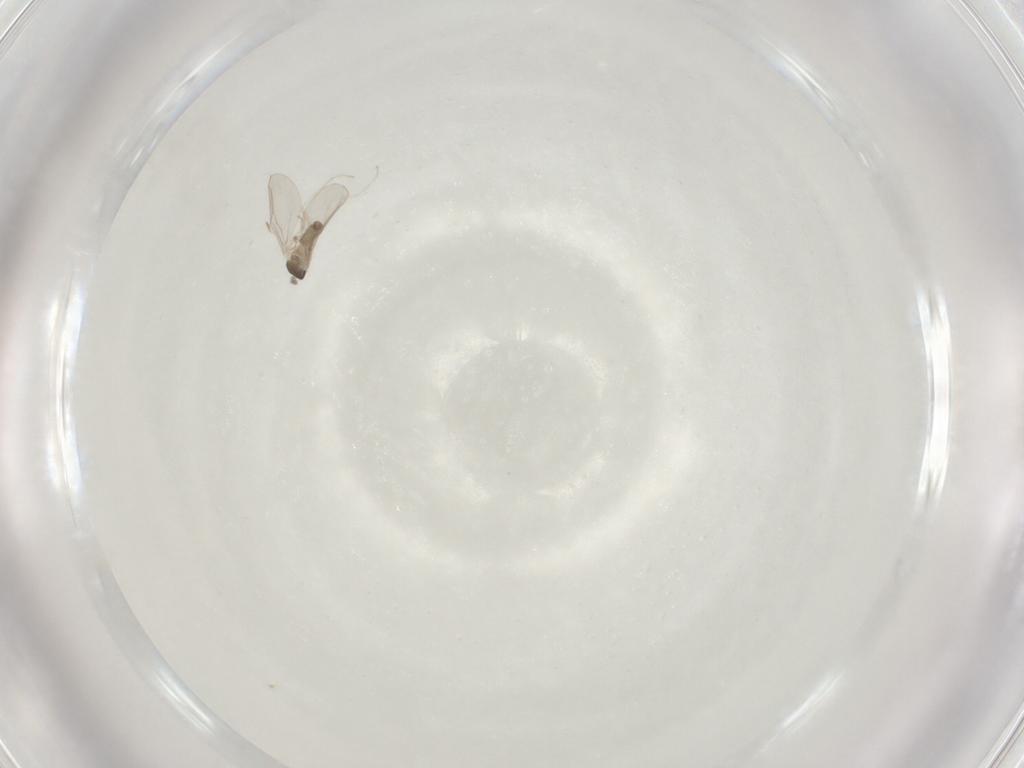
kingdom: Animalia
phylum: Arthropoda
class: Insecta
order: Diptera
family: Cecidomyiidae
